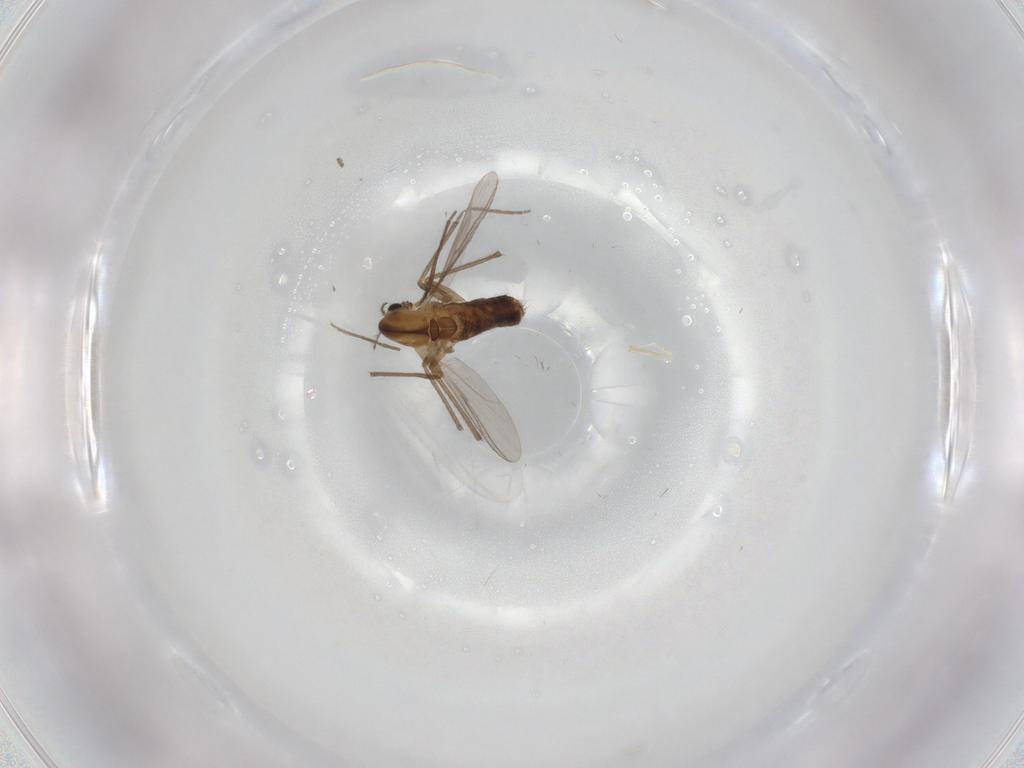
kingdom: Animalia
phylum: Arthropoda
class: Insecta
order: Diptera
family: Chironomidae
